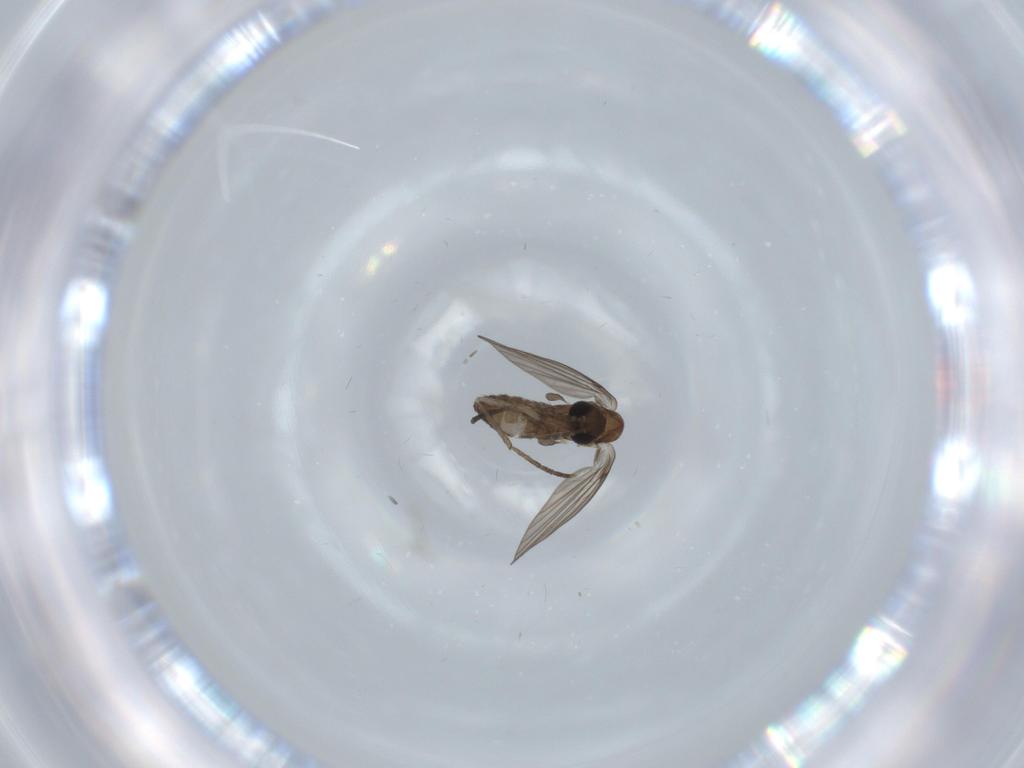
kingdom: Animalia
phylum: Arthropoda
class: Insecta
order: Diptera
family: Psychodidae
